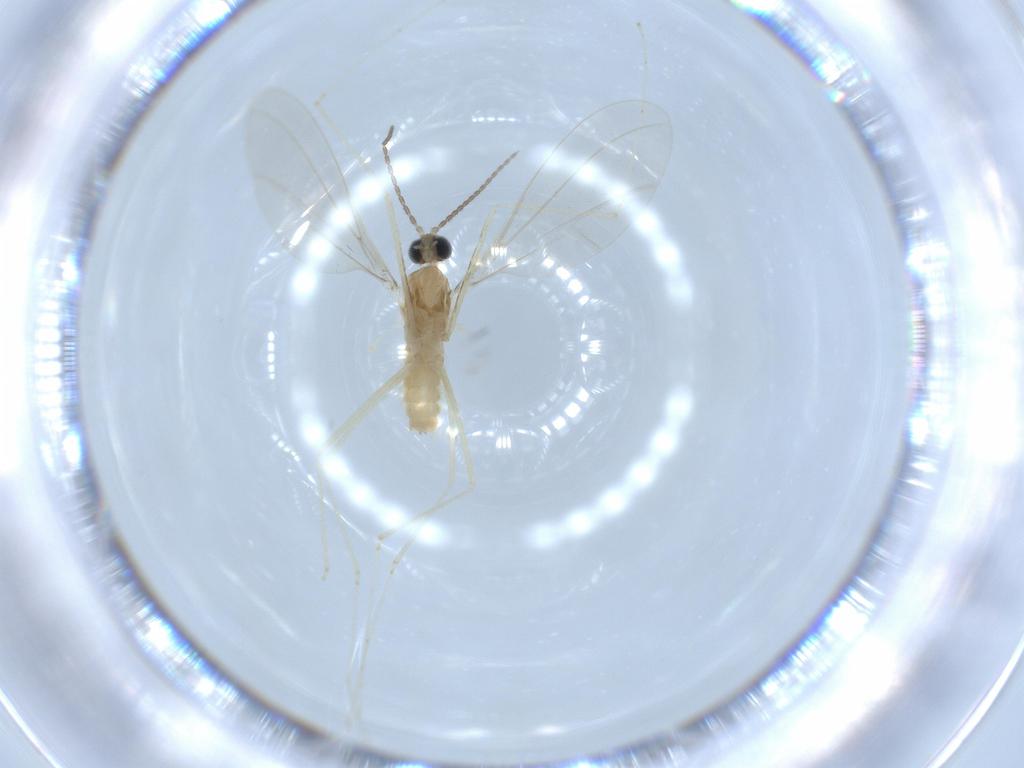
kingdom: Animalia
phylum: Arthropoda
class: Insecta
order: Diptera
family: Cecidomyiidae
